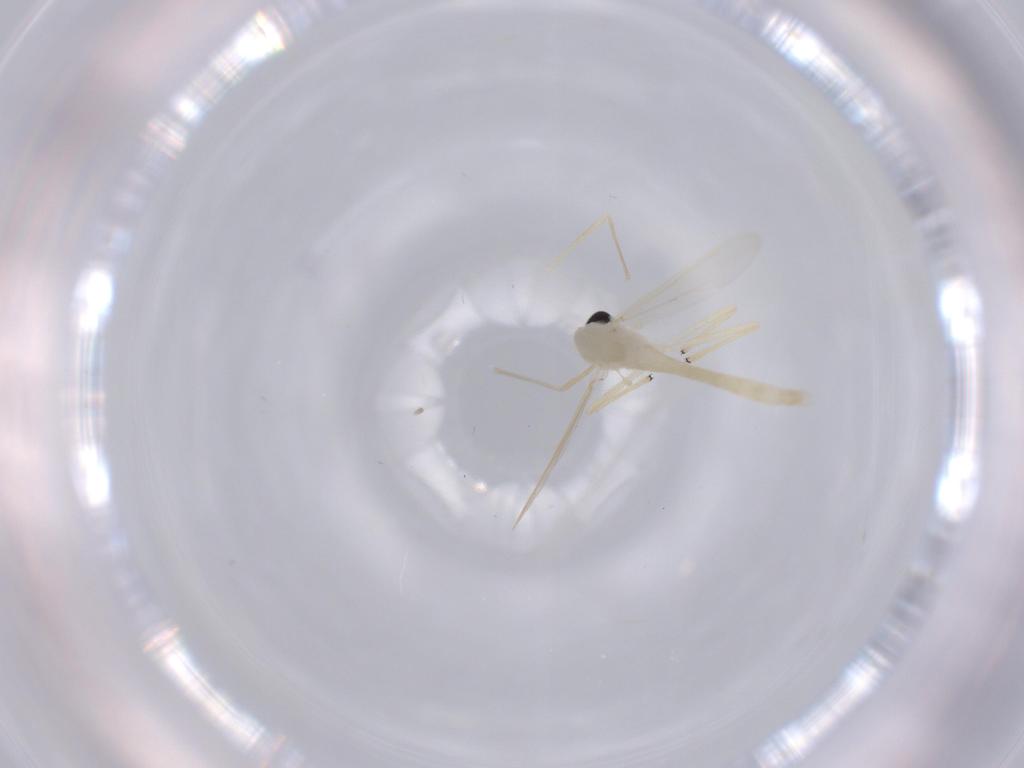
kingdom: Animalia
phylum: Arthropoda
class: Insecta
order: Diptera
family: Chironomidae
